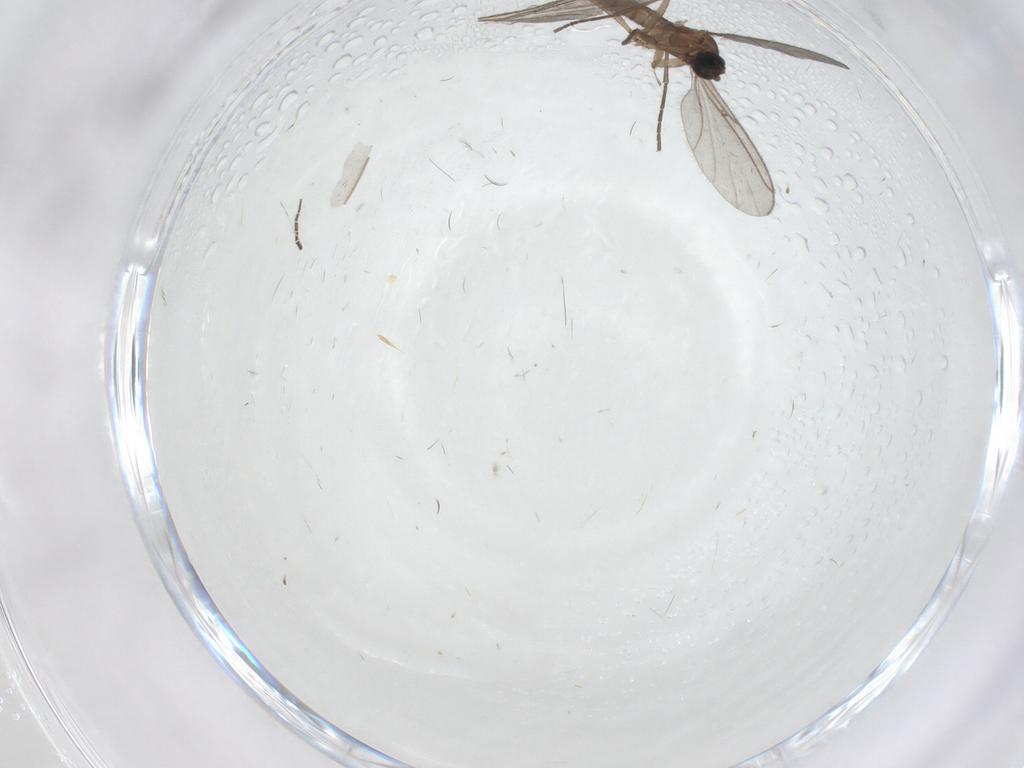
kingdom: Animalia
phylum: Arthropoda
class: Insecta
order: Diptera
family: Sciaridae
